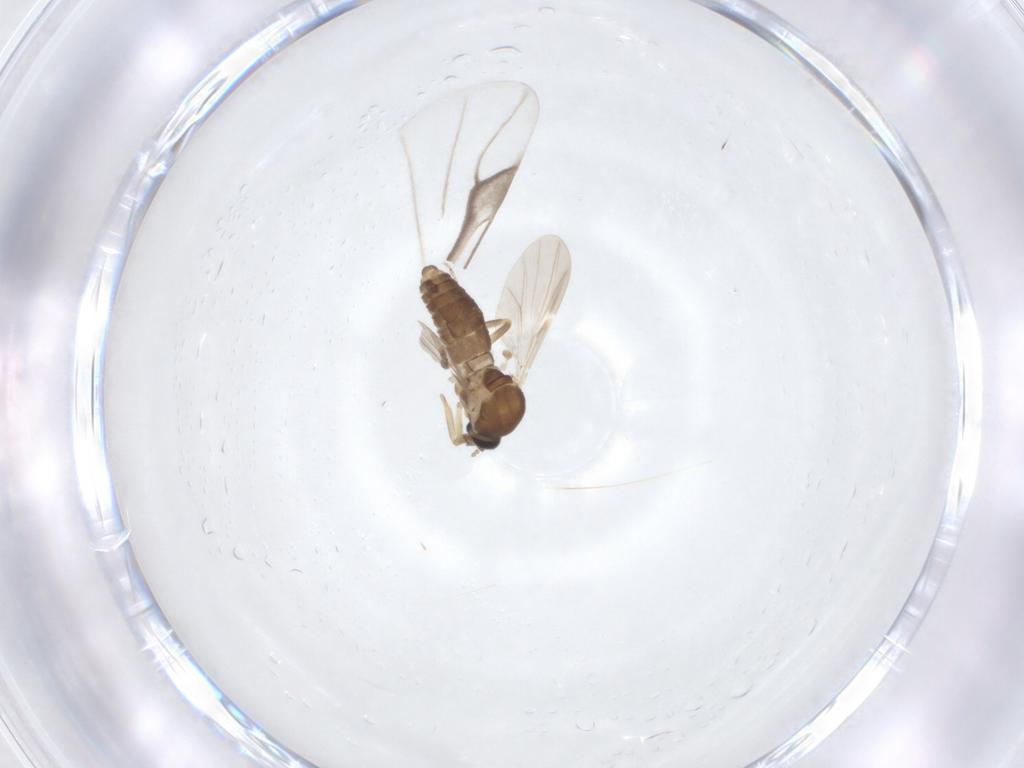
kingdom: Animalia
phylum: Arthropoda
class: Insecta
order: Diptera
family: Ceratopogonidae
